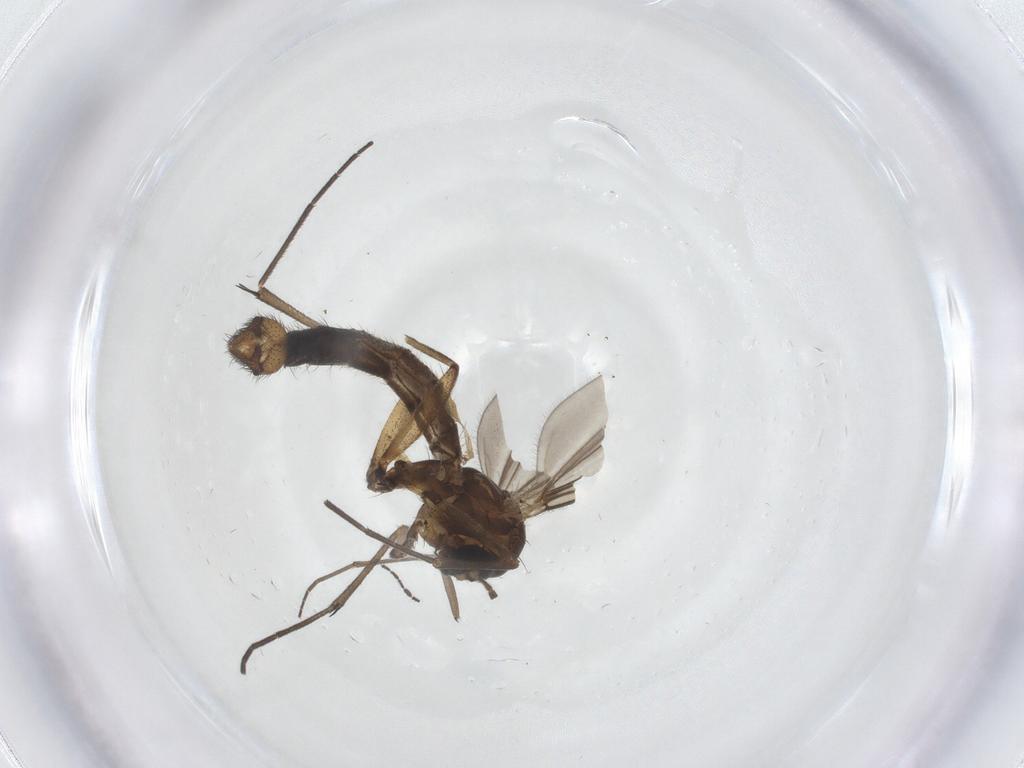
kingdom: Animalia
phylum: Arthropoda
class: Insecta
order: Diptera
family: Mycetophilidae
